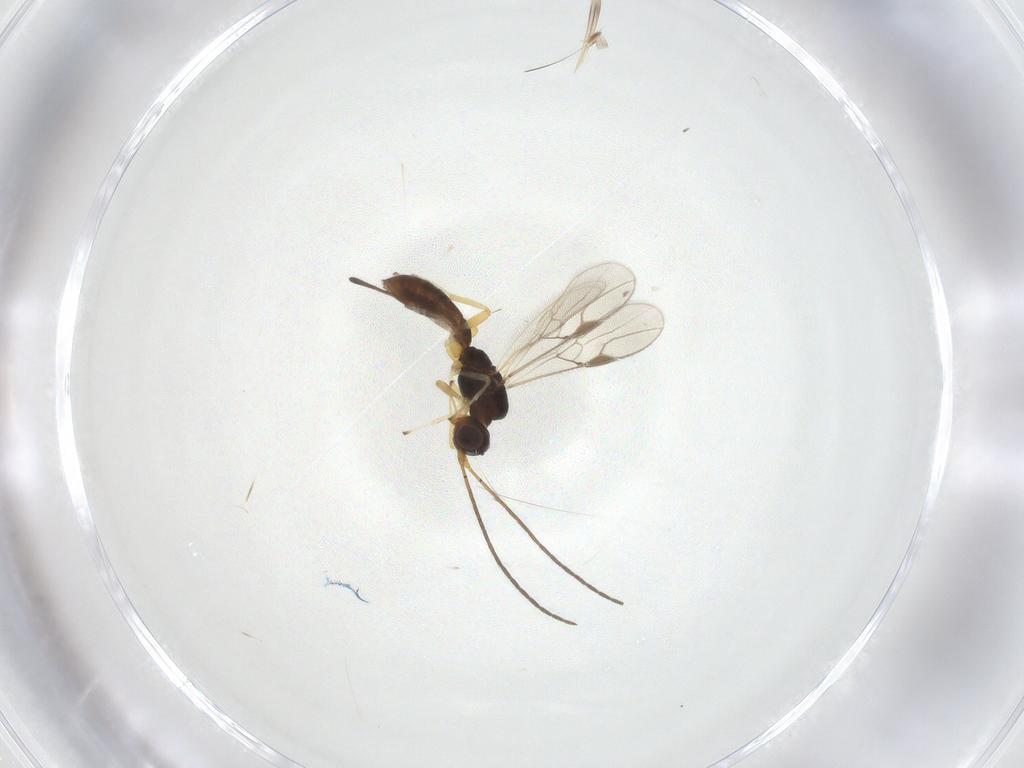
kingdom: Animalia
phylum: Arthropoda
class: Insecta
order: Hymenoptera
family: Braconidae
